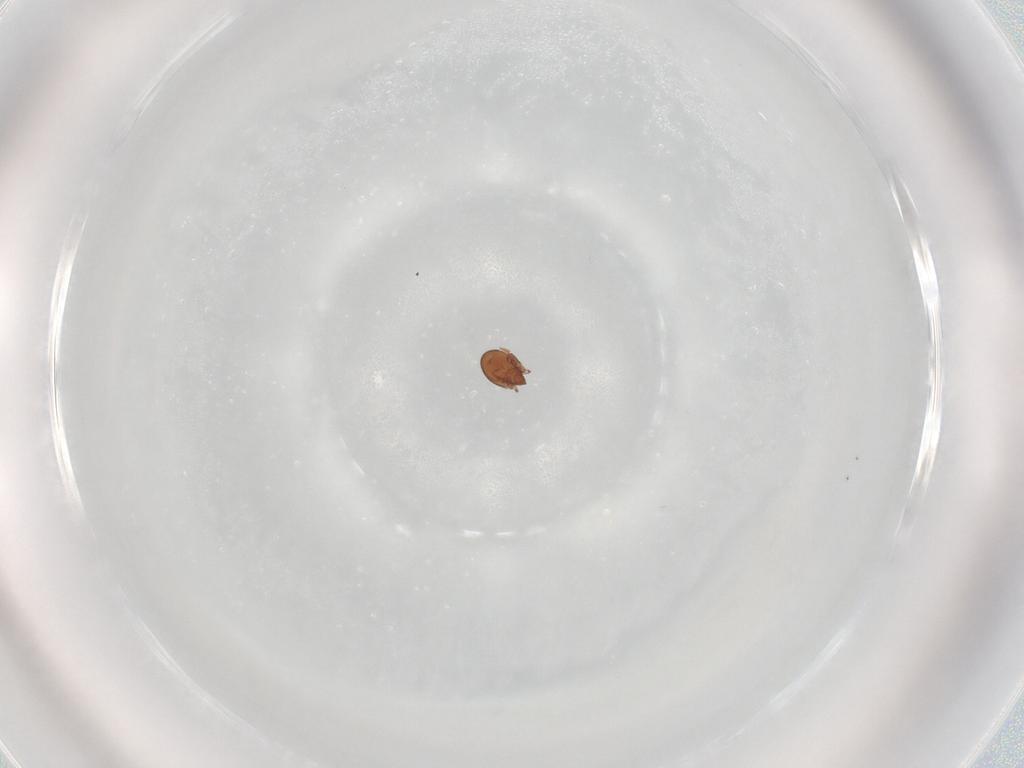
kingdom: Animalia
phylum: Arthropoda
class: Arachnida
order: Sarcoptiformes
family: Scheloribatidae
